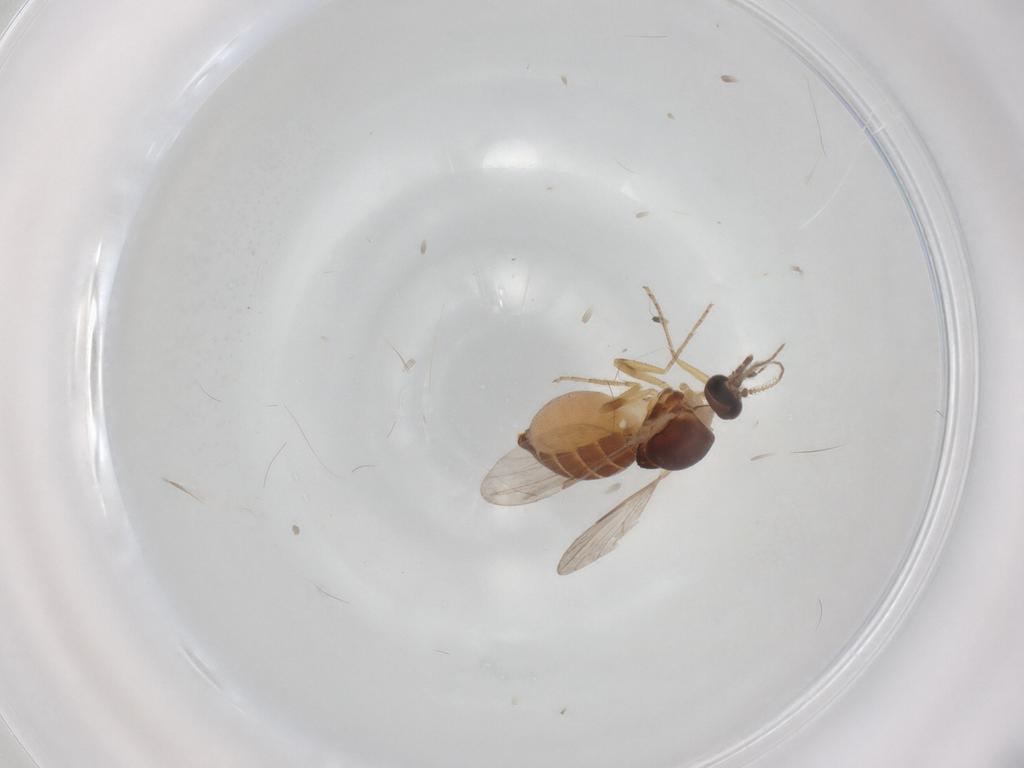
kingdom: Animalia
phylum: Arthropoda
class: Insecta
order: Diptera
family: Ceratopogonidae
